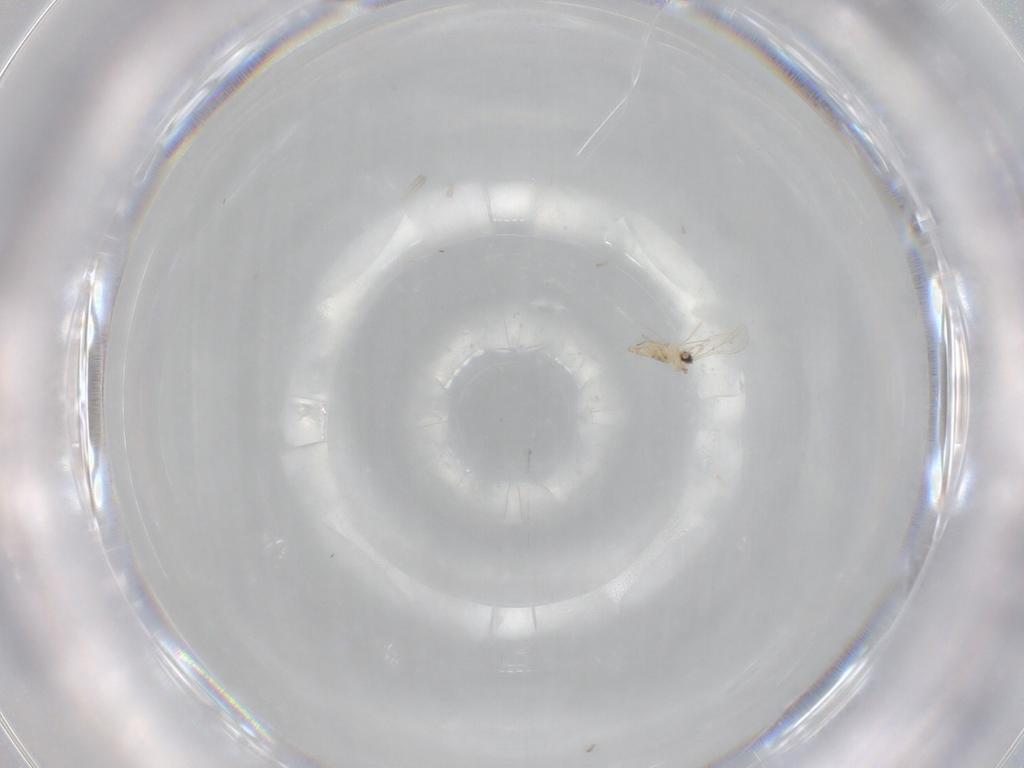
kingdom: Animalia
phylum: Arthropoda
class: Insecta
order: Diptera
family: Cecidomyiidae
